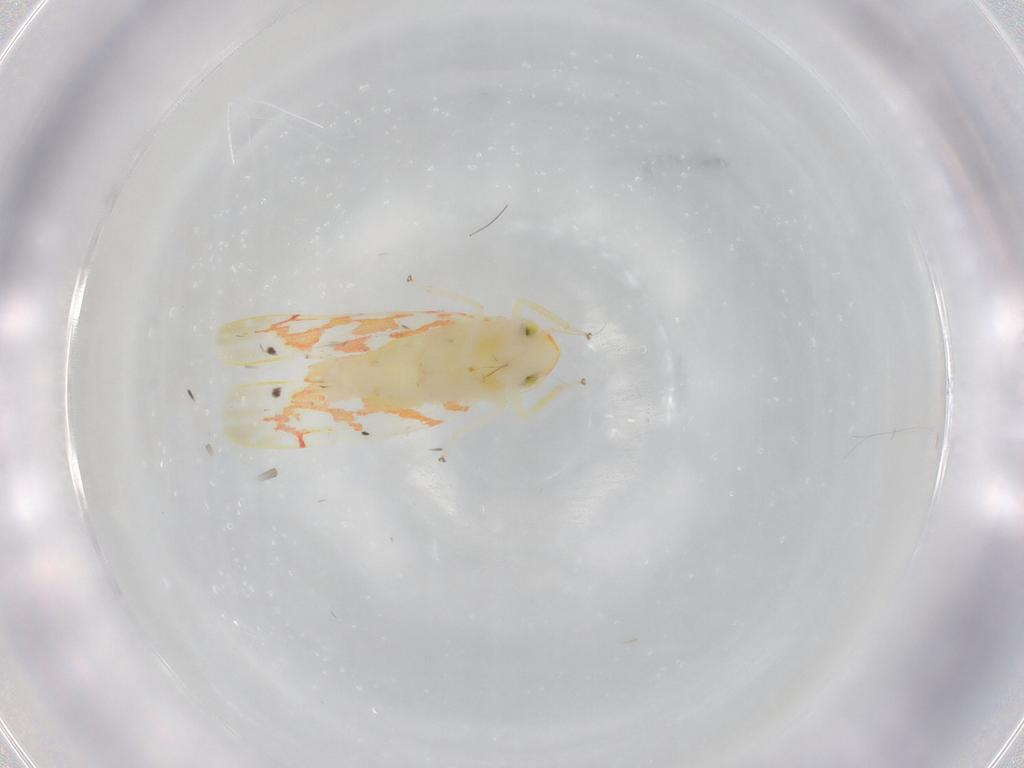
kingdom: Animalia
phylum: Arthropoda
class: Insecta
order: Hemiptera
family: Cicadellidae
